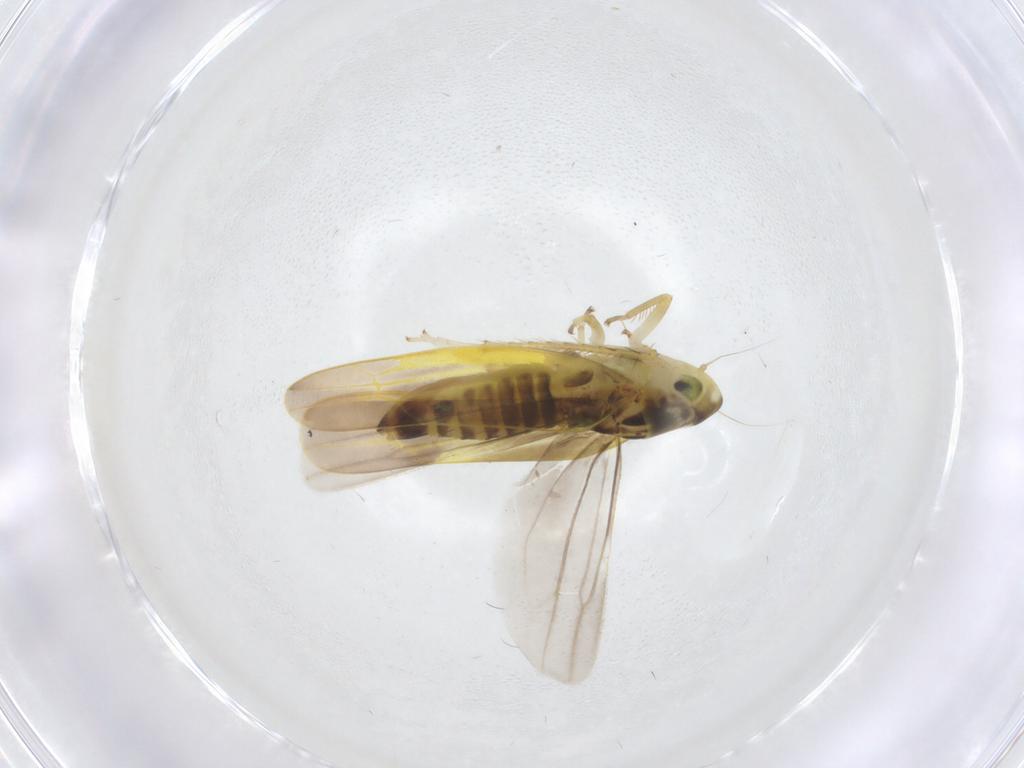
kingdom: Animalia
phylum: Arthropoda
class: Insecta
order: Hemiptera
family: Cicadellidae
